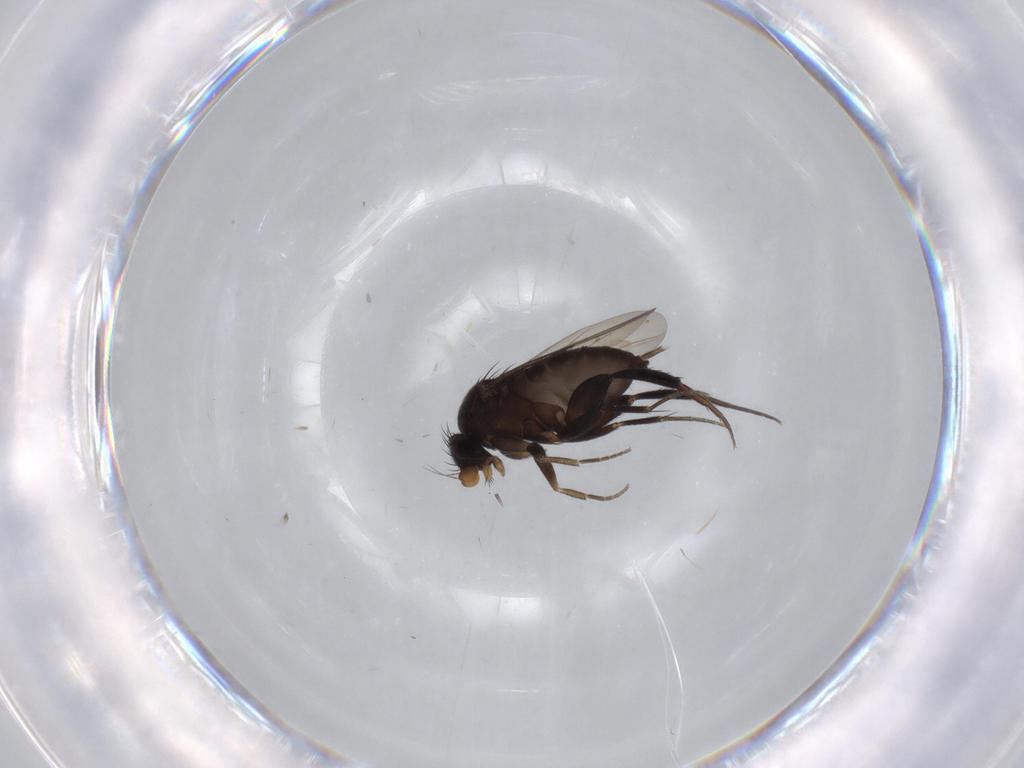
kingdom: Animalia
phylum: Arthropoda
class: Insecta
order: Diptera
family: Phoridae
